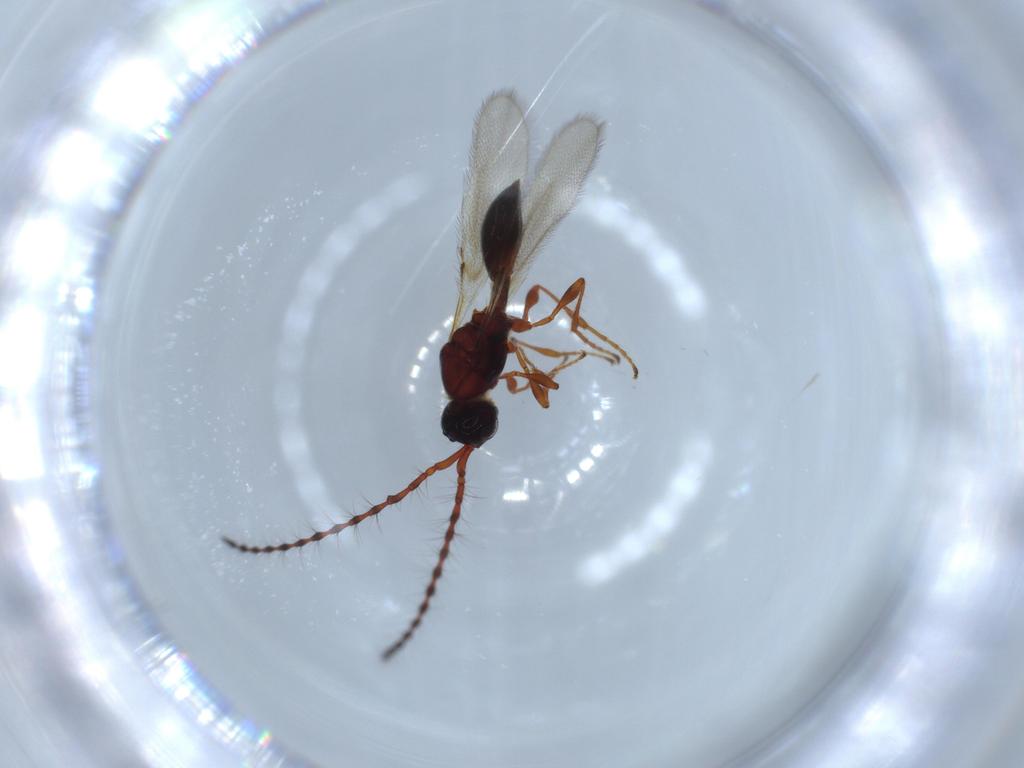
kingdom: Animalia
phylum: Arthropoda
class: Insecta
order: Hymenoptera
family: Diapriidae
